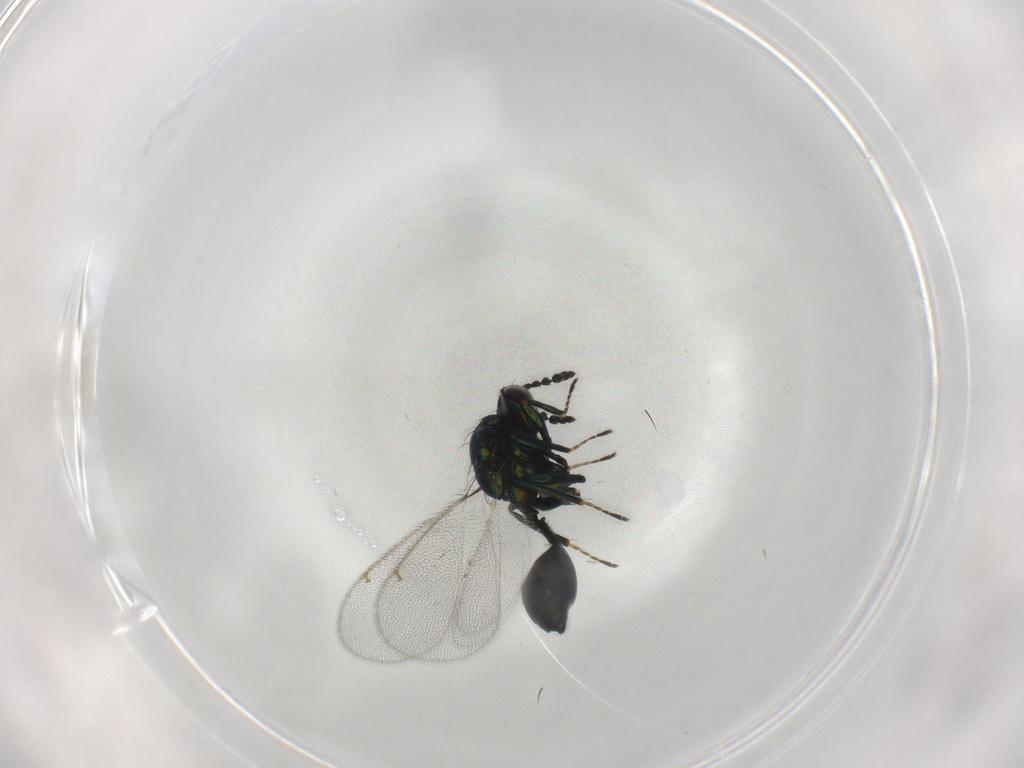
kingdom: Animalia
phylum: Arthropoda
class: Insecta
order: Hymenoptera
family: Eulophidae
